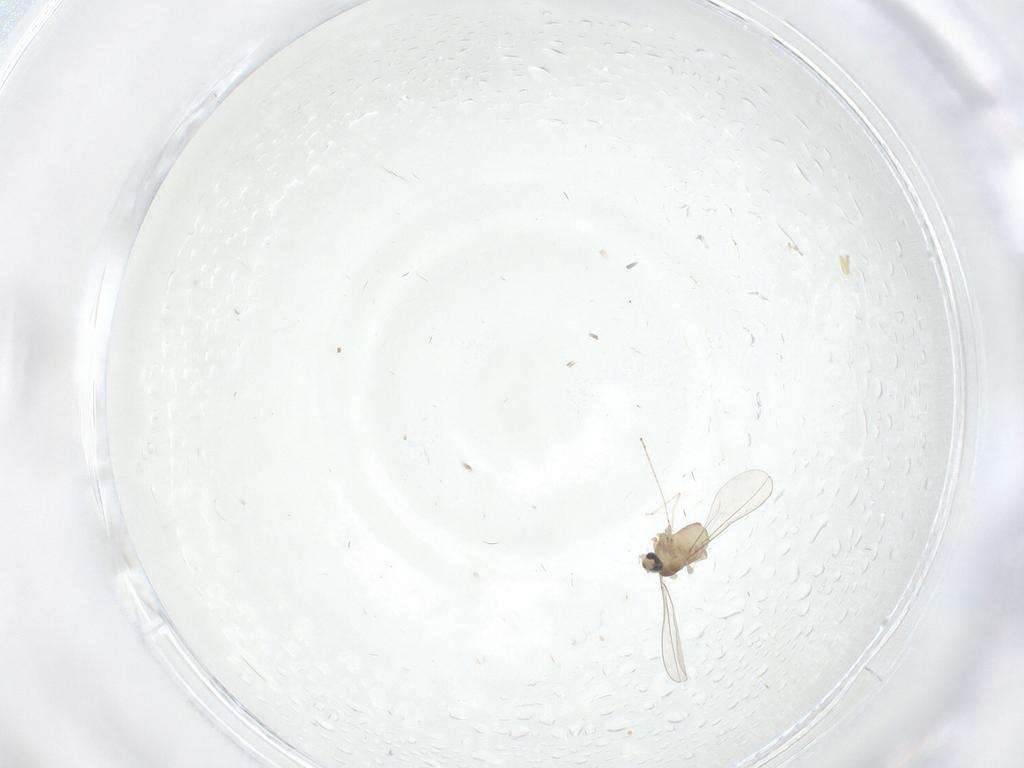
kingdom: Animalia
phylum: Arthropoda
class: Insecta
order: Diptera
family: Phoridae
